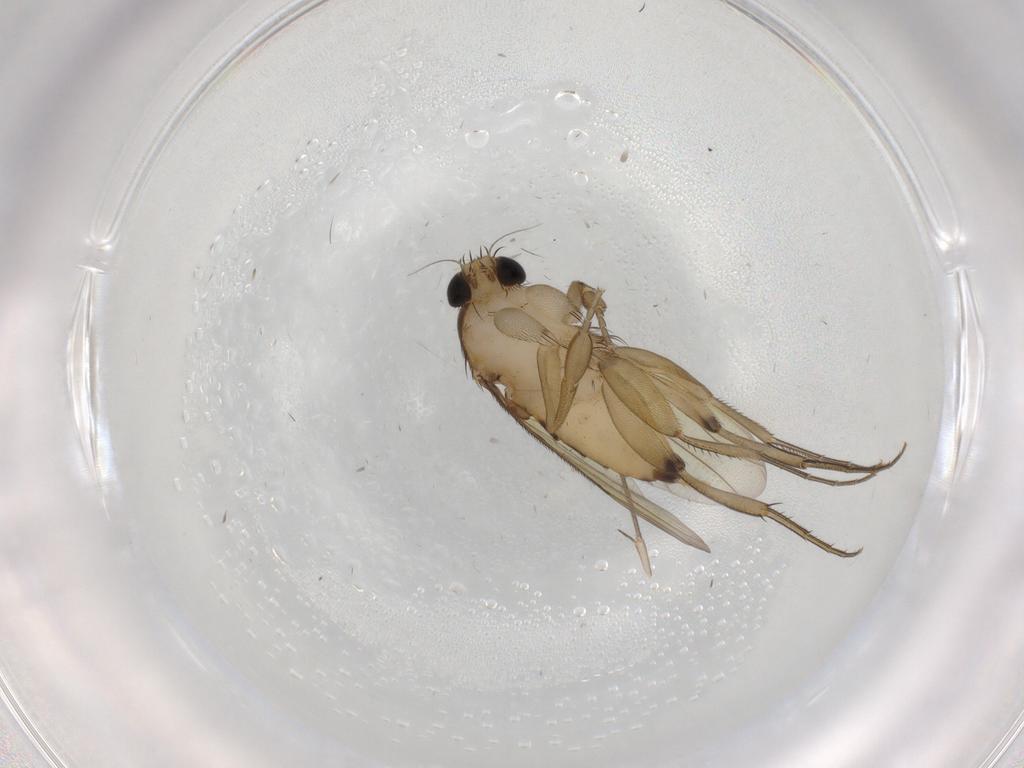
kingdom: Animalia
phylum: Arthropoda
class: Insecta
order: Diptera
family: Phoridae
